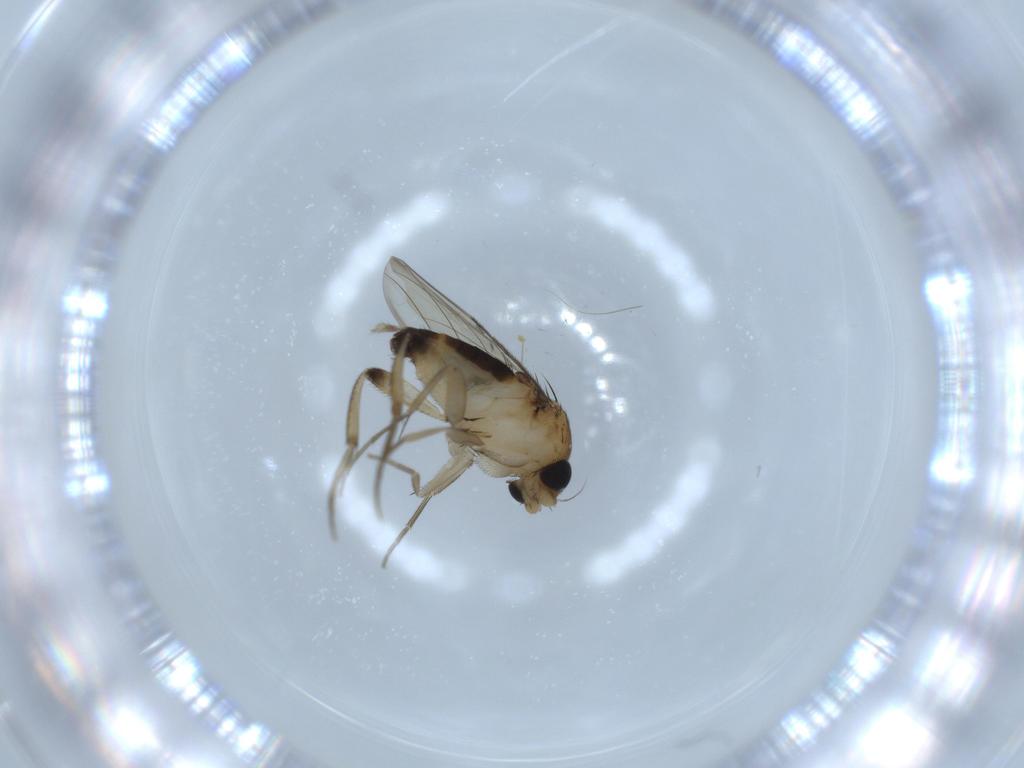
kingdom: Animalia
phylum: Arthropoda
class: Insecta
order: Diptera
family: Phoridae
